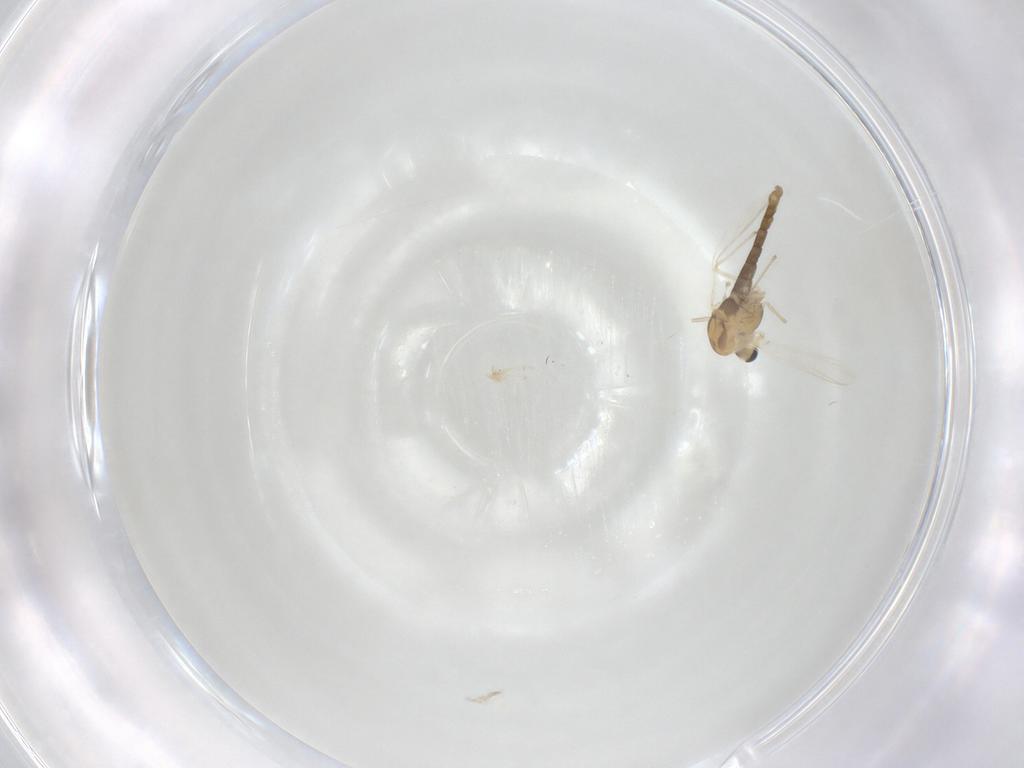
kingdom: Animalia
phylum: Arthropoda
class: Insecta
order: Diptera
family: Chironomidae
